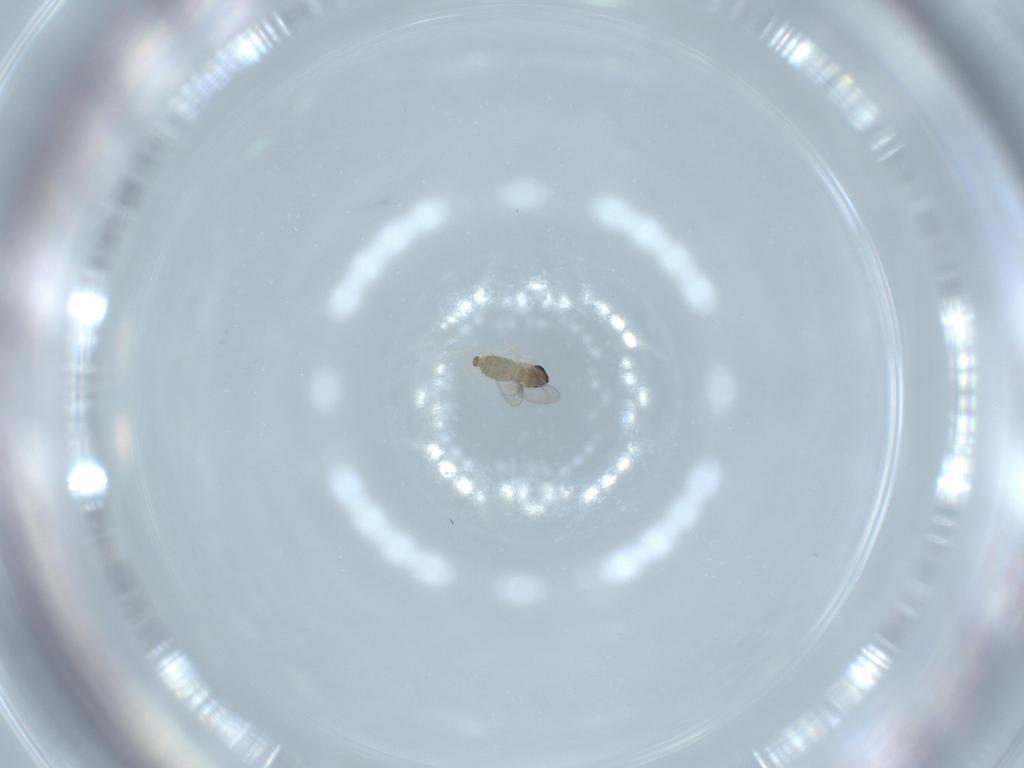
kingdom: Animalia
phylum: Arthropoda
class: Insecta
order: Diptera
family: Cecidomyiidae
